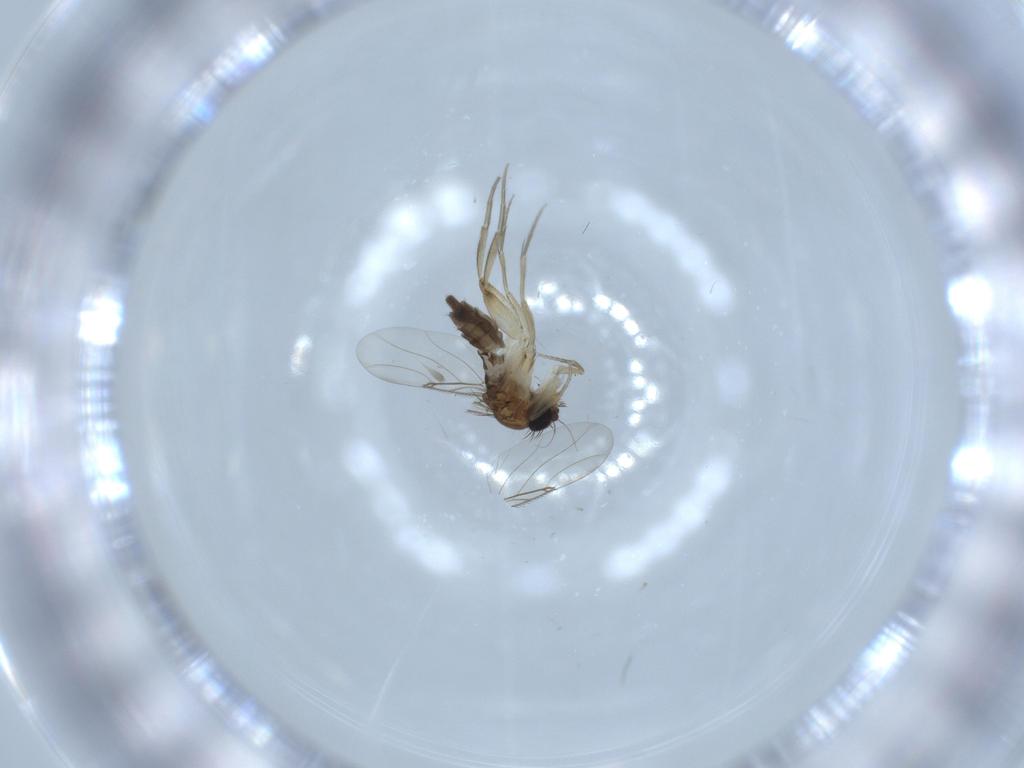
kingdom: Animalia
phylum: Arthropoda
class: Insecta
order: Diptera
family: Phoridae
